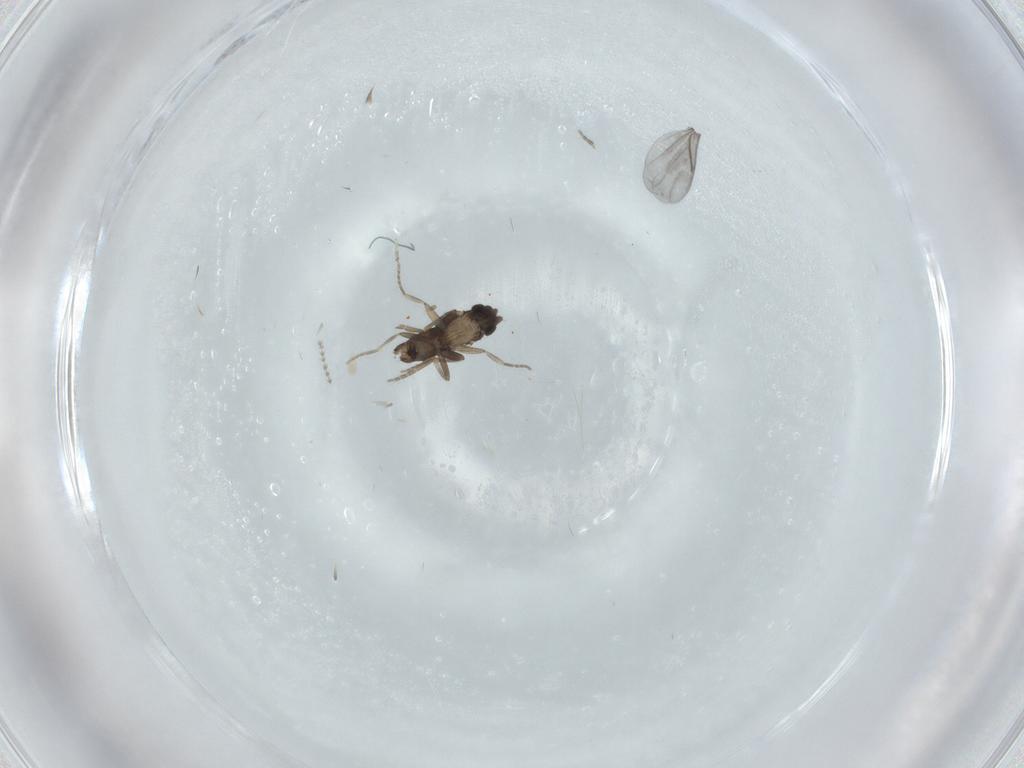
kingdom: Animalia
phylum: Arthropoda
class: Insecta
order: Diptera
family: Cecidomyiidae
